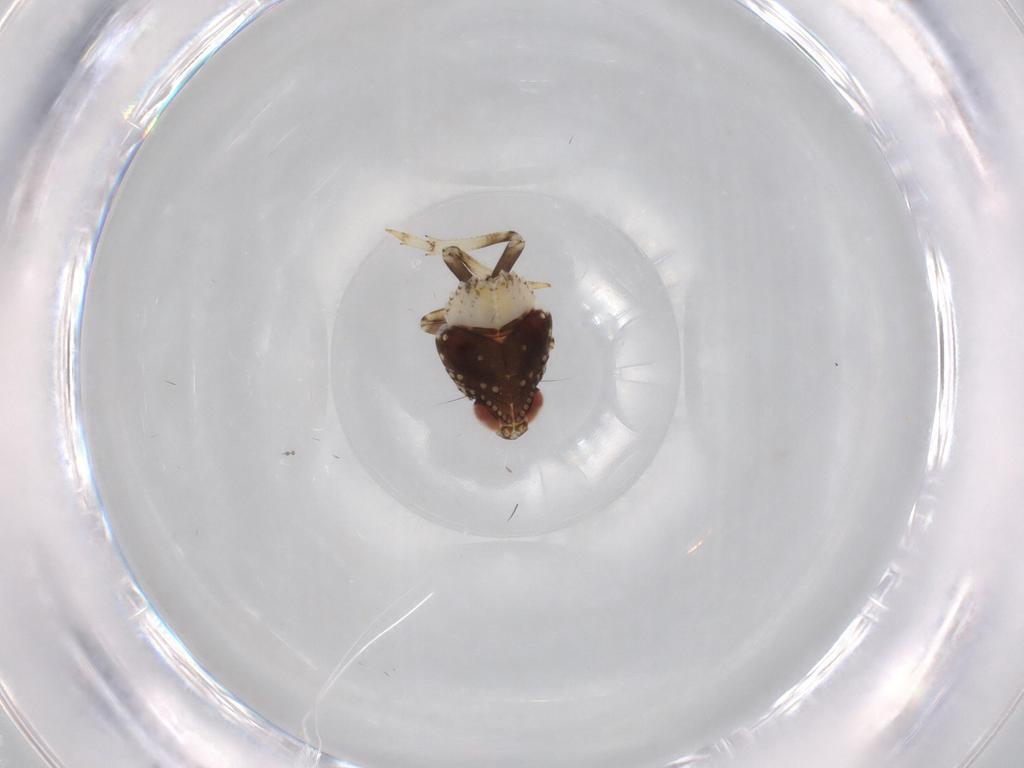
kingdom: Animalia
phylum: Arthropoda
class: Insecta
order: Hemiptera
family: Issidae
